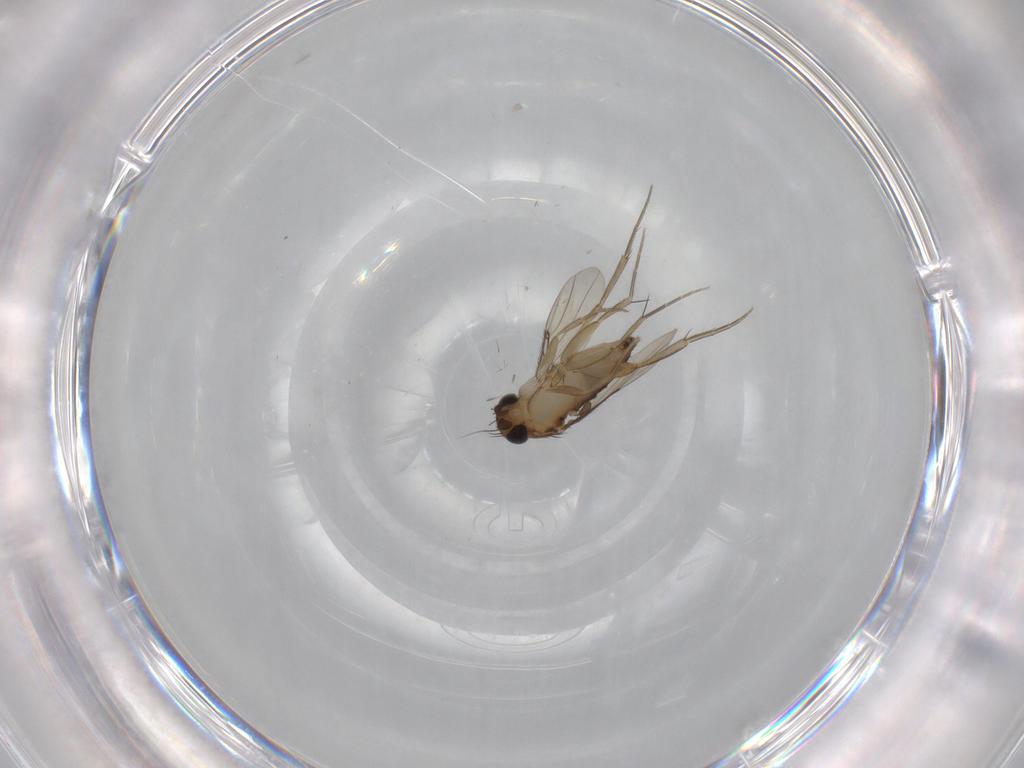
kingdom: Animalia
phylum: Arthropoda
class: Insecta
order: Diptera
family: Phoridae
